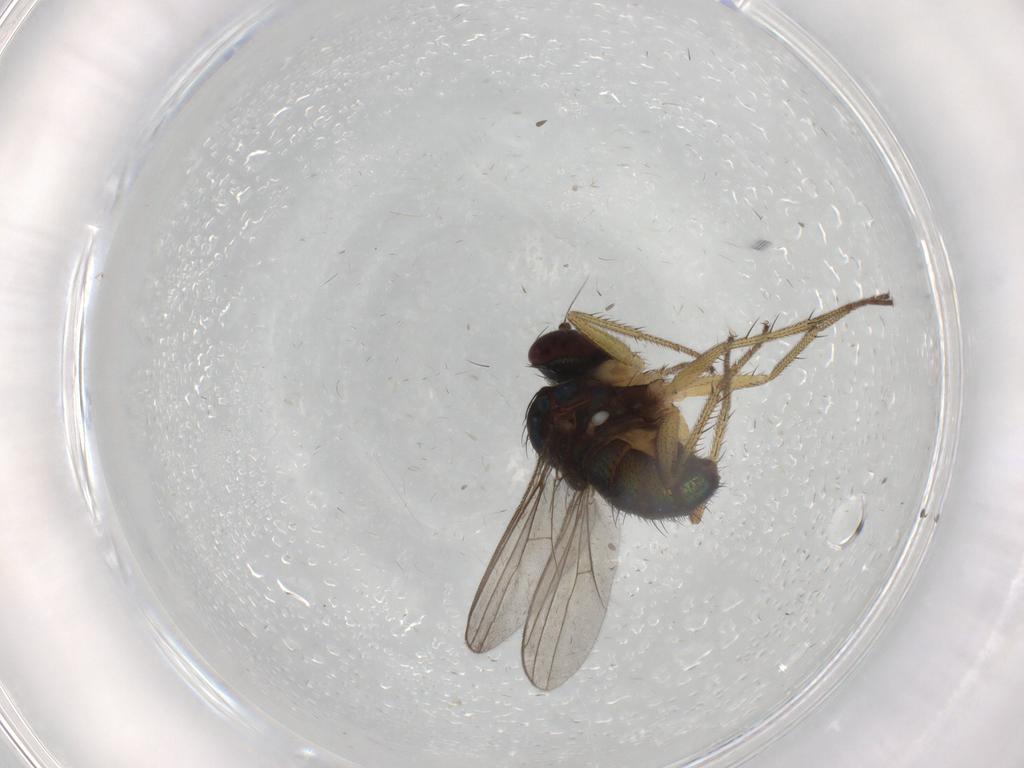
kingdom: Animalia
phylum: Arthropoda
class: Insecta
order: Diptera
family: Dolichopodidae
